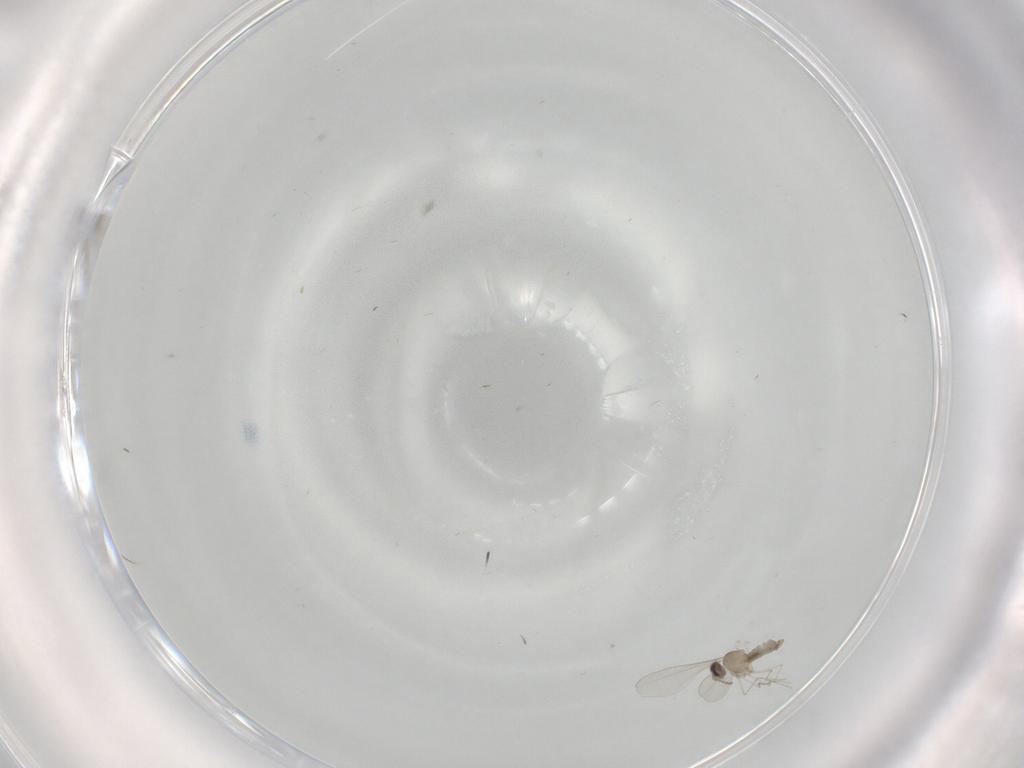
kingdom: Animalia
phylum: Arthropoda
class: Insecta
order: Diptera
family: Cecidomyiidae
